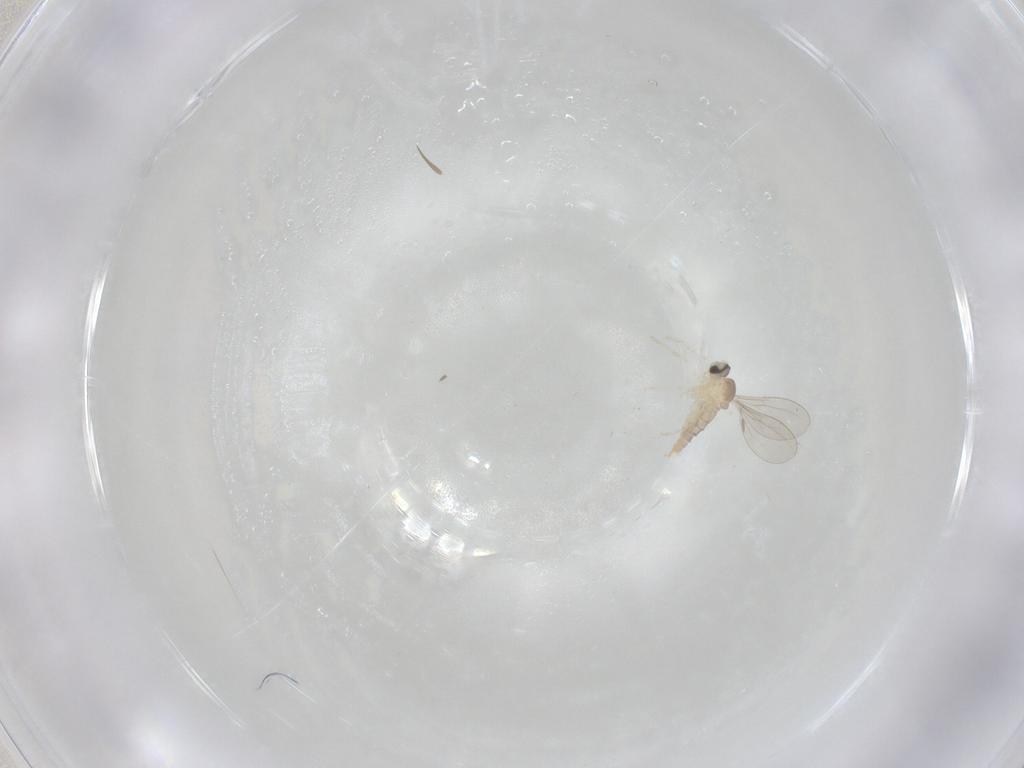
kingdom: Animalia
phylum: Arthropoda
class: Insecta
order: Diptera
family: Cecidomyiidae
